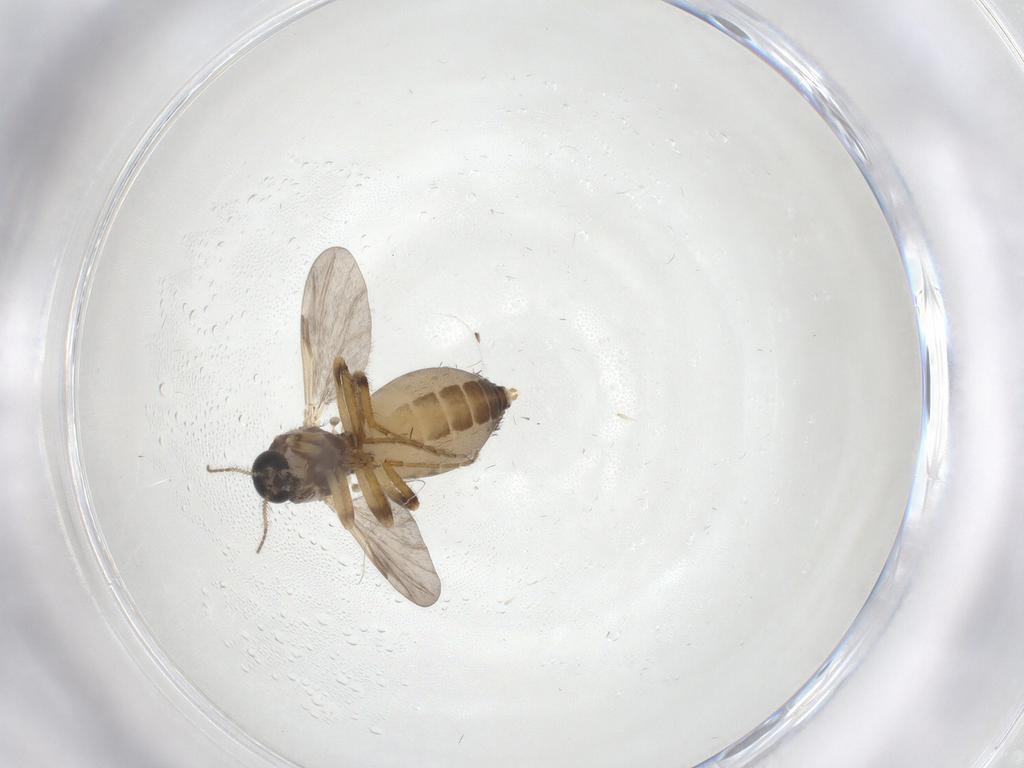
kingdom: Animalia
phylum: Arthropoda
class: Insecta
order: Diptera
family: Ceratopogonidae
